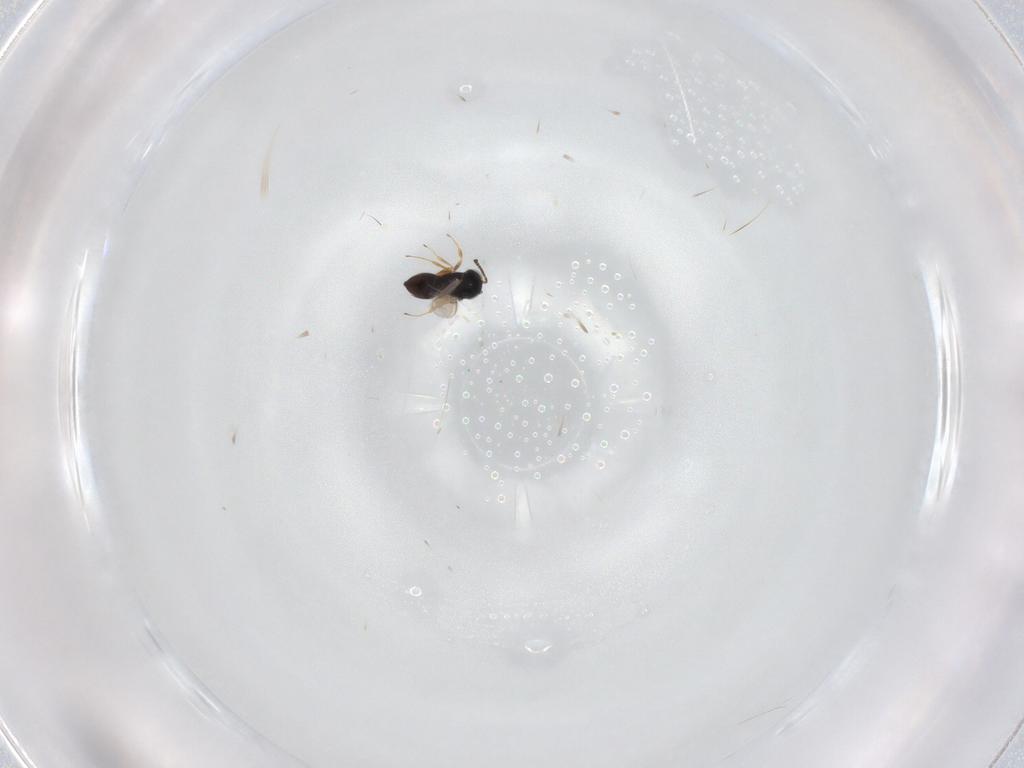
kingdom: Animalia
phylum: Arthropoda
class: Insecta
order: Hymenoptera
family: Scelionidae
